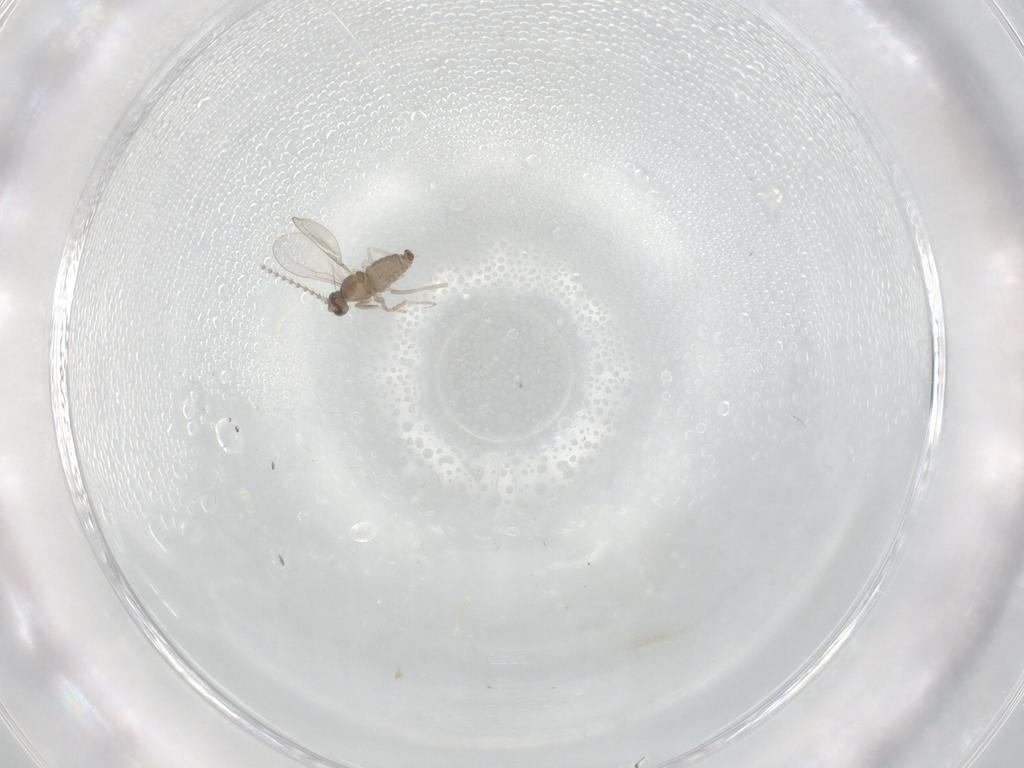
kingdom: Animalia
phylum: Arthropoda
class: Insecta
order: Diptera
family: Cecidomyiidae
